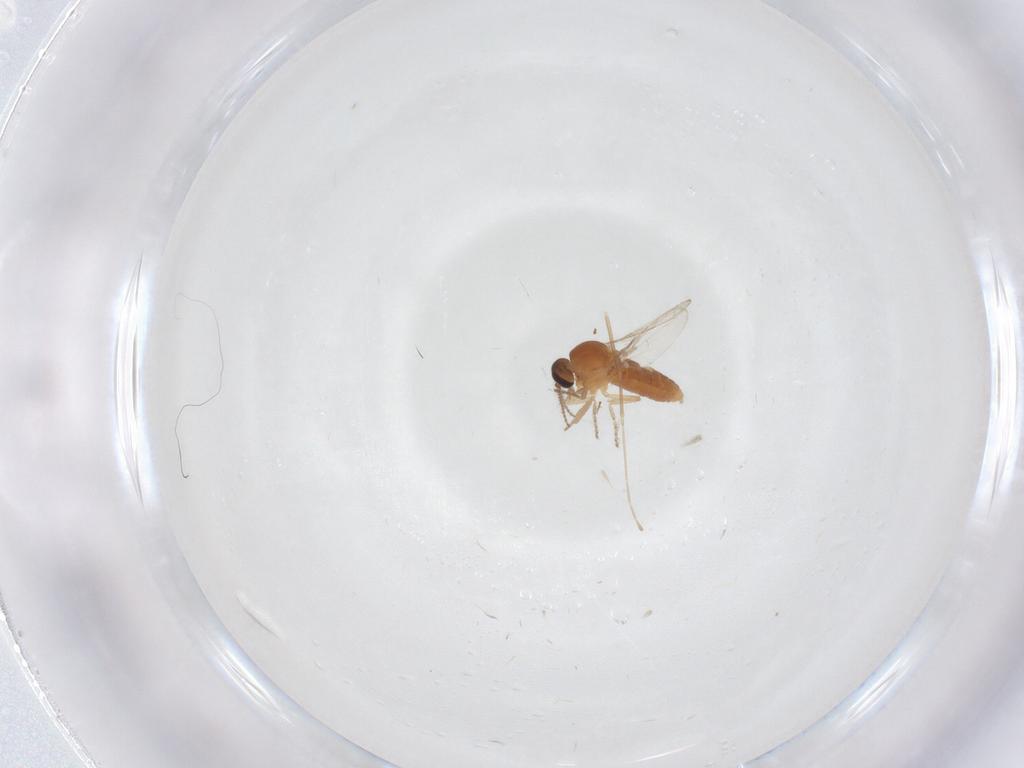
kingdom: Animalia
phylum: Arthropoda
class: Insecta
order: Diptera
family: Ceratopogonidae
